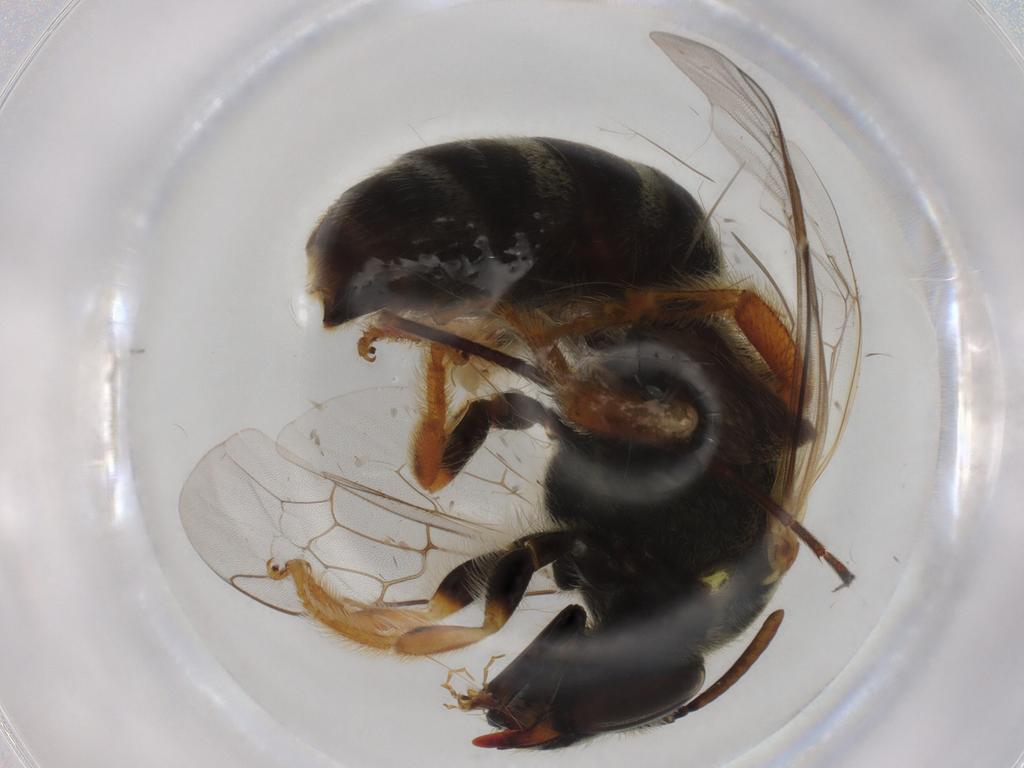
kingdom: Animalia
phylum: Arthropoda
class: Insecta
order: Hymenoptera
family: Halictidae
